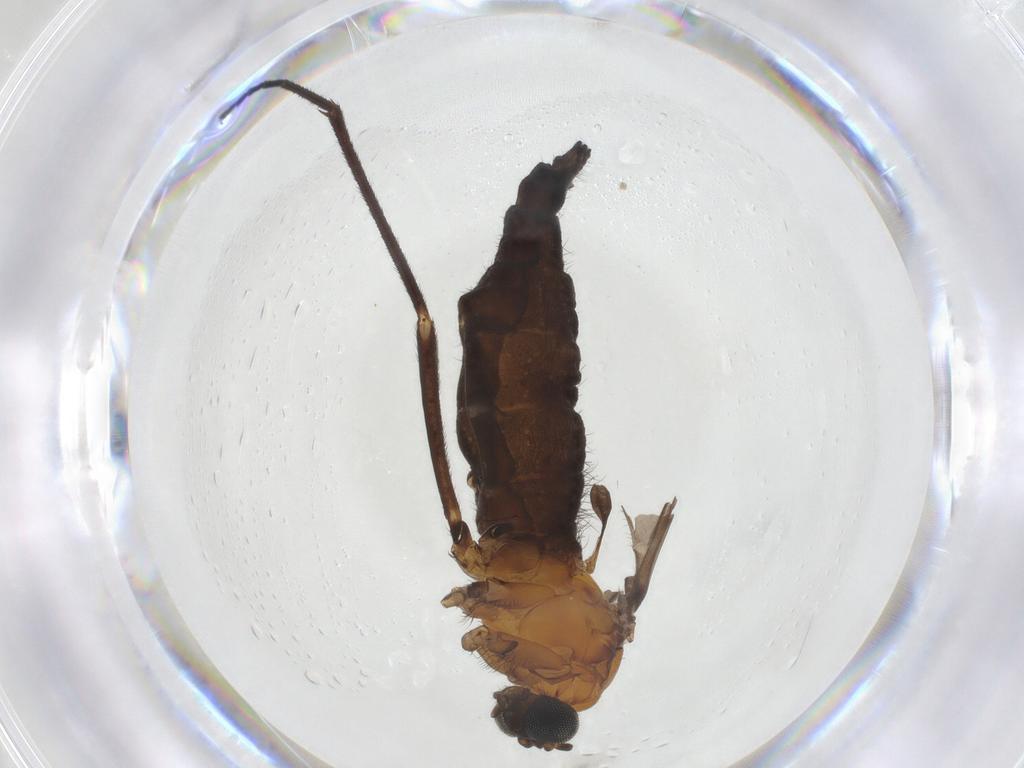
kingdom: Animalia
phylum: Arthropoda
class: Insecta
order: Diptera
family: Sciaridae
